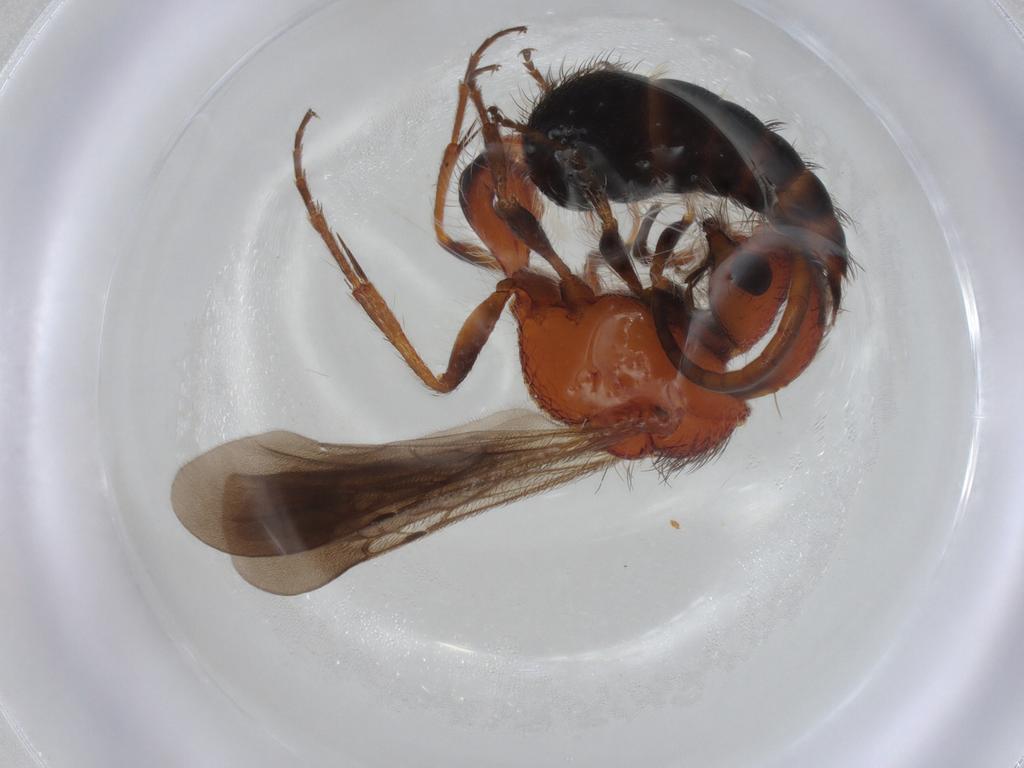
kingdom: Animalia
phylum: Arthropoda
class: Insecta
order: Hymenoptera
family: Mutillidae
